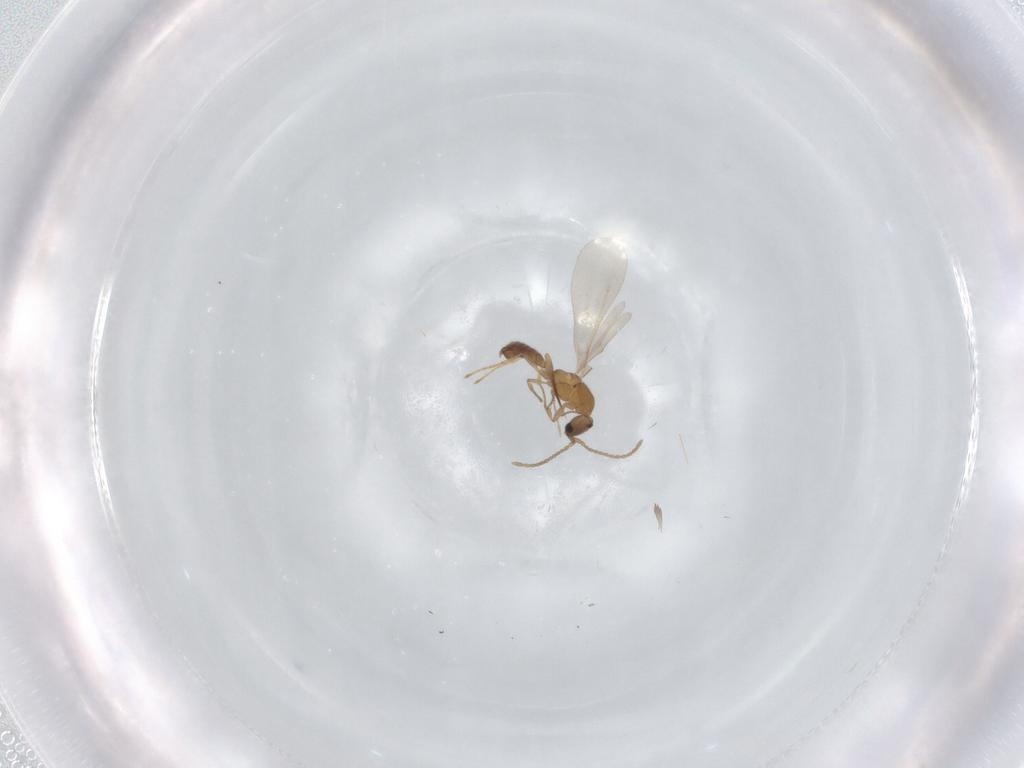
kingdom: Animalia
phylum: Arthropoda
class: Insecta
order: Hymenoptera
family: Formicidae
